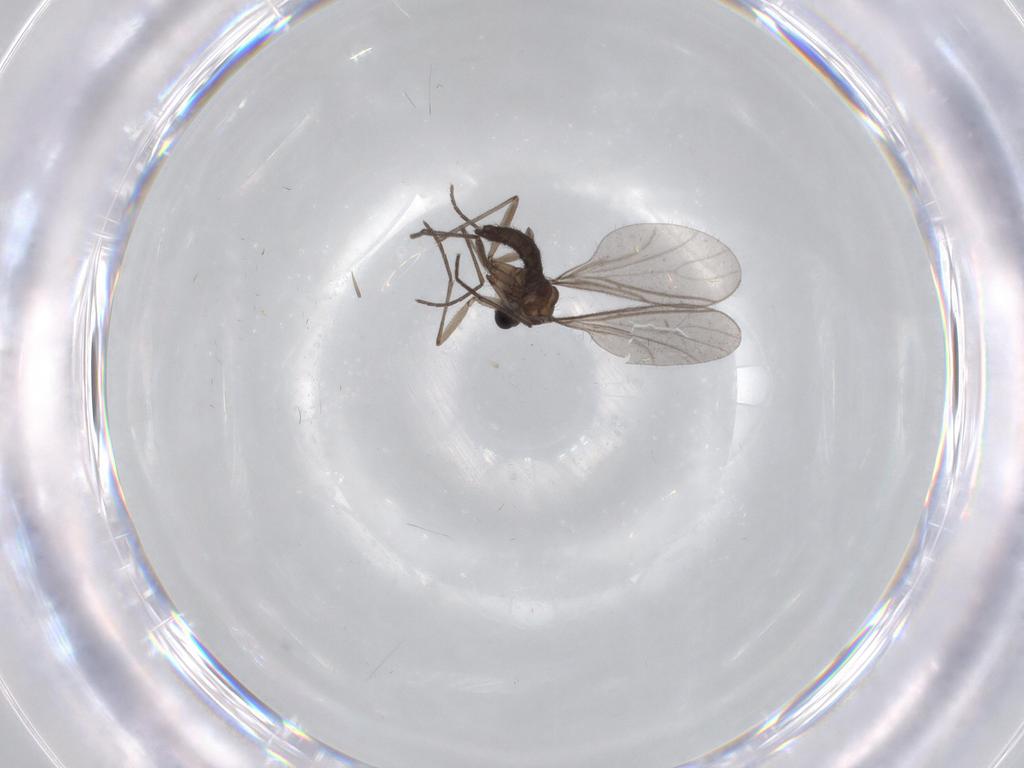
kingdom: Animalia
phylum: Arthropoda
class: Insecta
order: Diptera
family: Sciaridae
